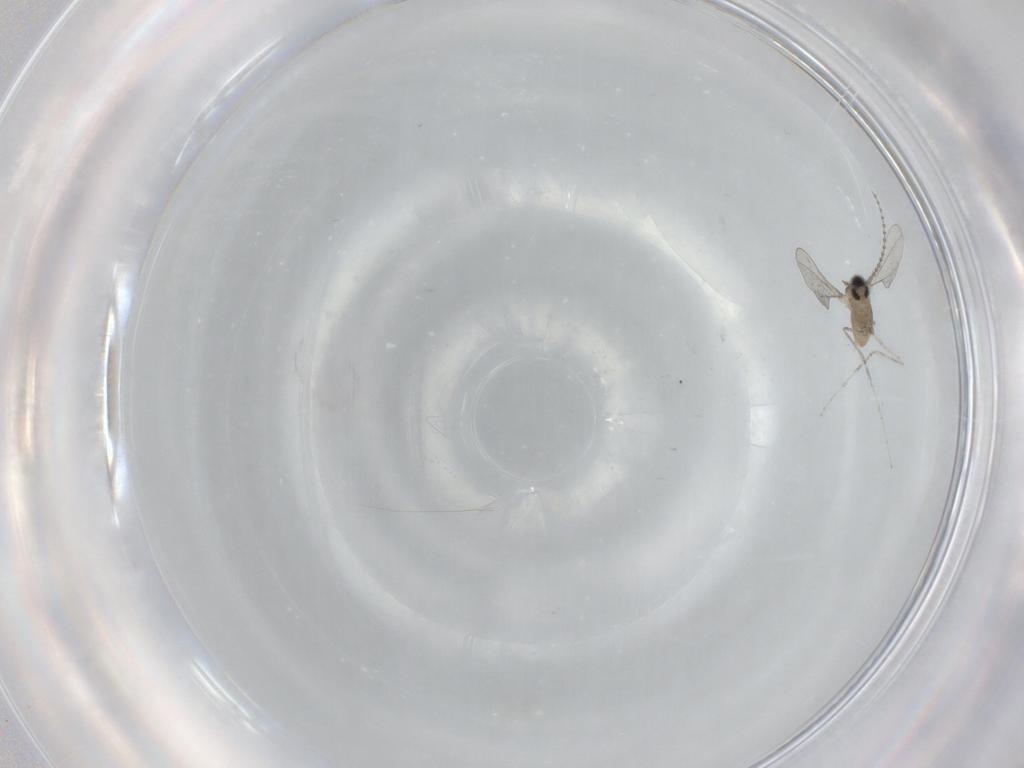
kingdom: Animalia
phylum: Arthropoda
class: Insecta
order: Diptera
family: Cecidomyiidae
